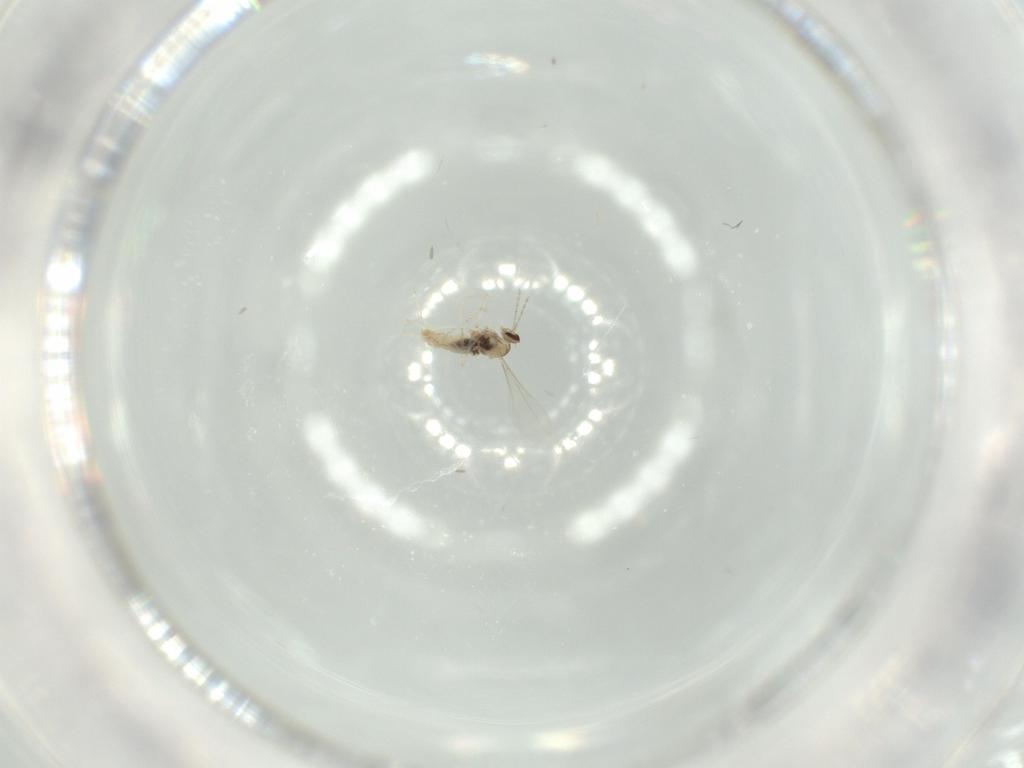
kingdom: Animalia
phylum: Arthropoda
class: Insecta
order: Diptera
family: Cecidomyiidae
